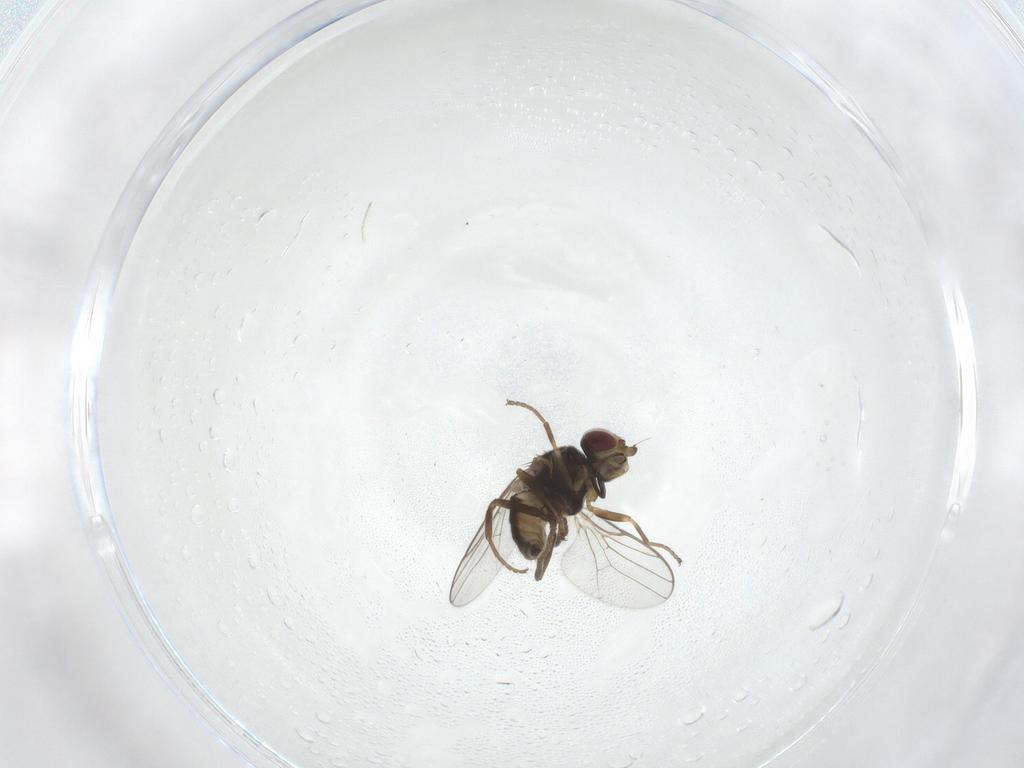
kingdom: Animalia
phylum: Arthropoda
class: Insecta
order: Diptera
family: Chloropidae
